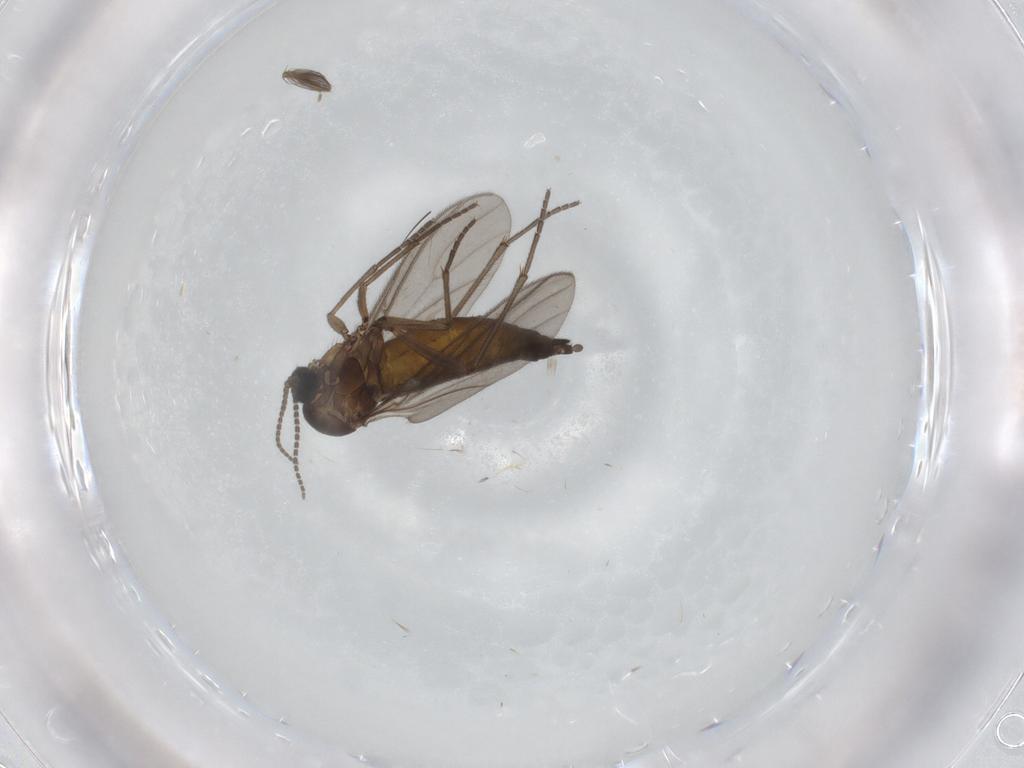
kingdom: Animalia
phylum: Arthropoda
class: Insecta
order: Diptera
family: Sciaridae
